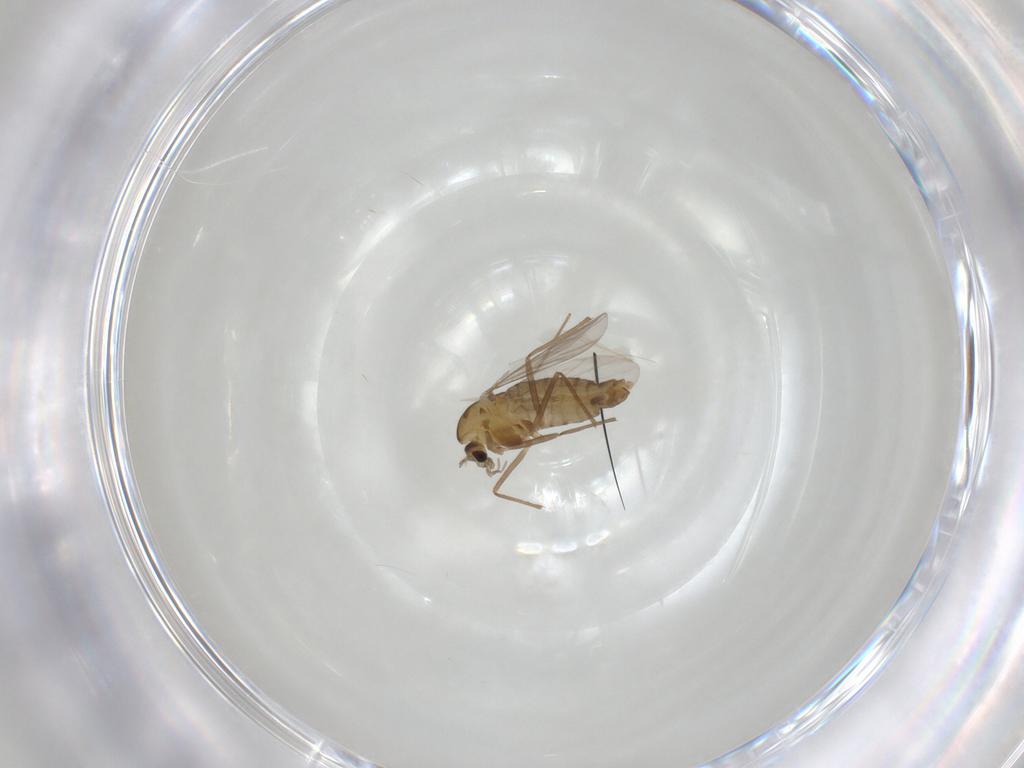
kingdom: Animalia
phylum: Arthropoda
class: Insecta
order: Diptera
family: Chironomidae
